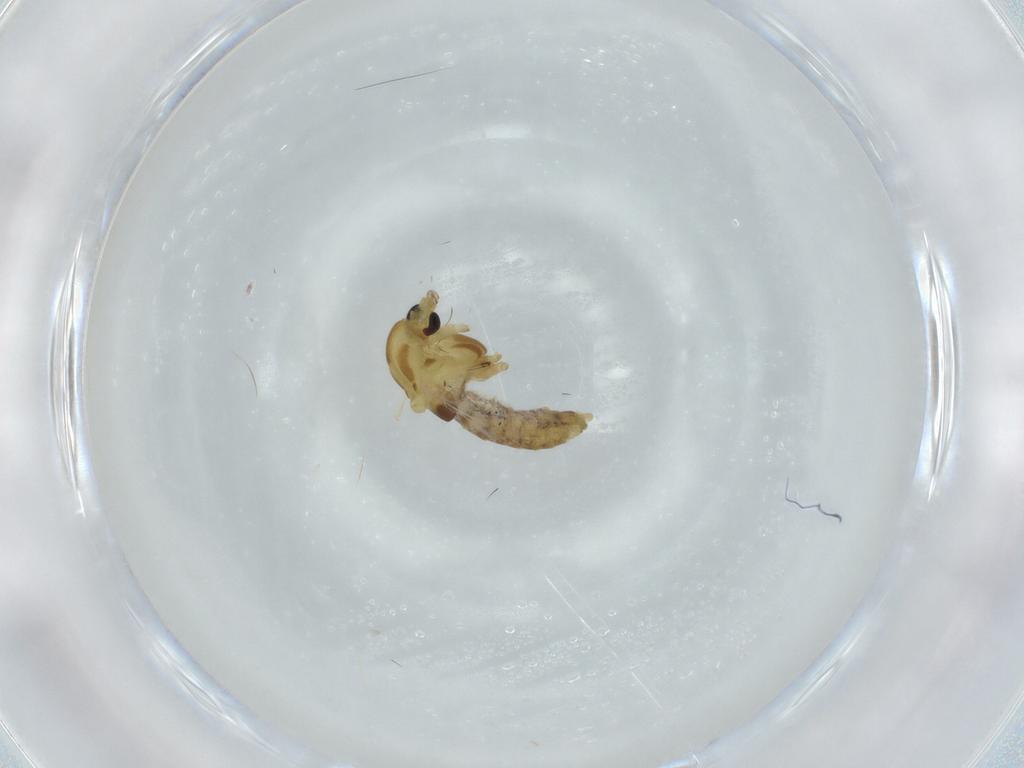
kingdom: Animalia
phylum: Arthropoda
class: Insecta
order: Diptera
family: Chironomidae
